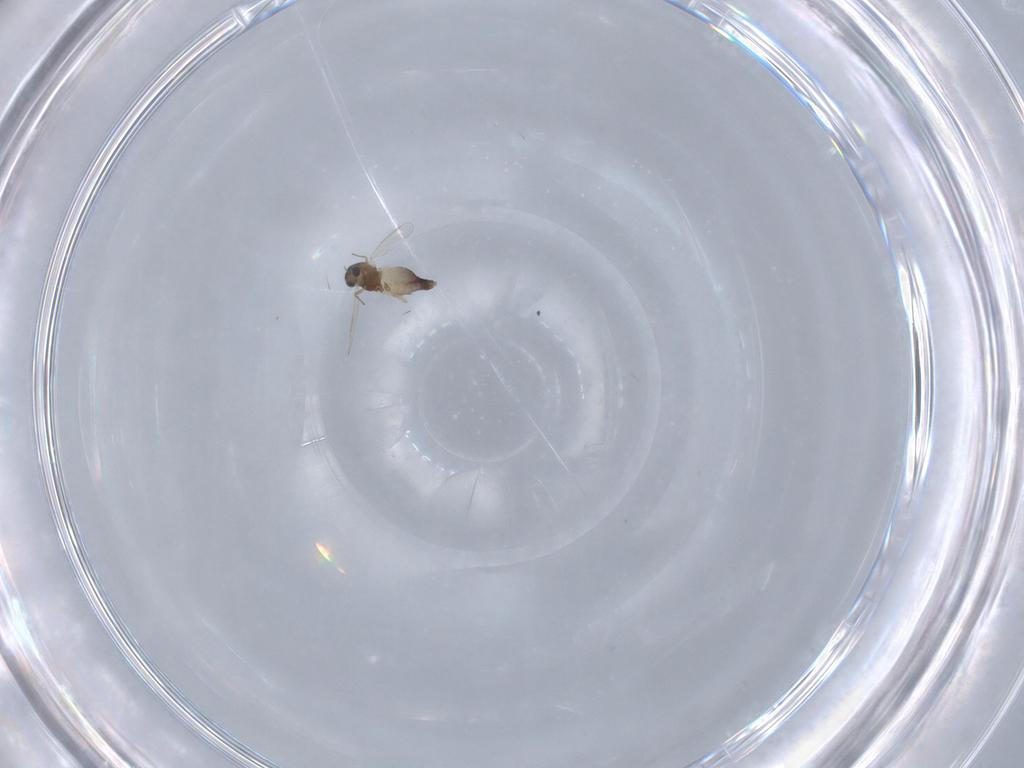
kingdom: Animalia
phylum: Arthropoda
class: Insecta
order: Diptera
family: Chironomidae
